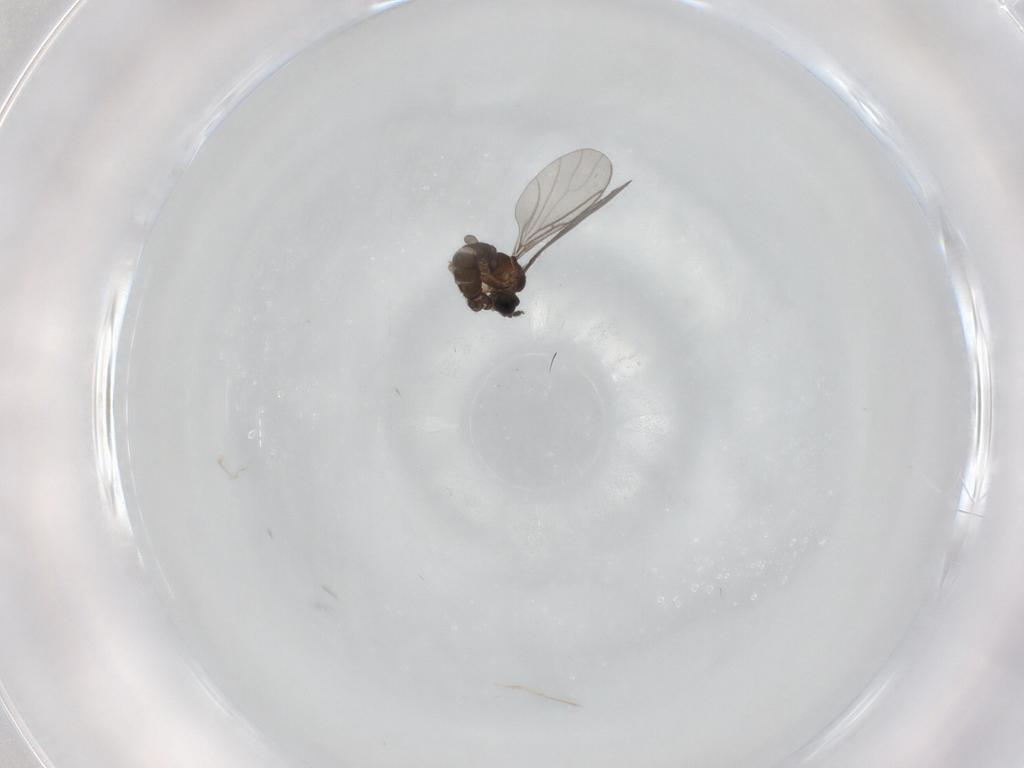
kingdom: Animalia
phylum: Arthropoda
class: Insecta
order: Diptera
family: Sciaridae
